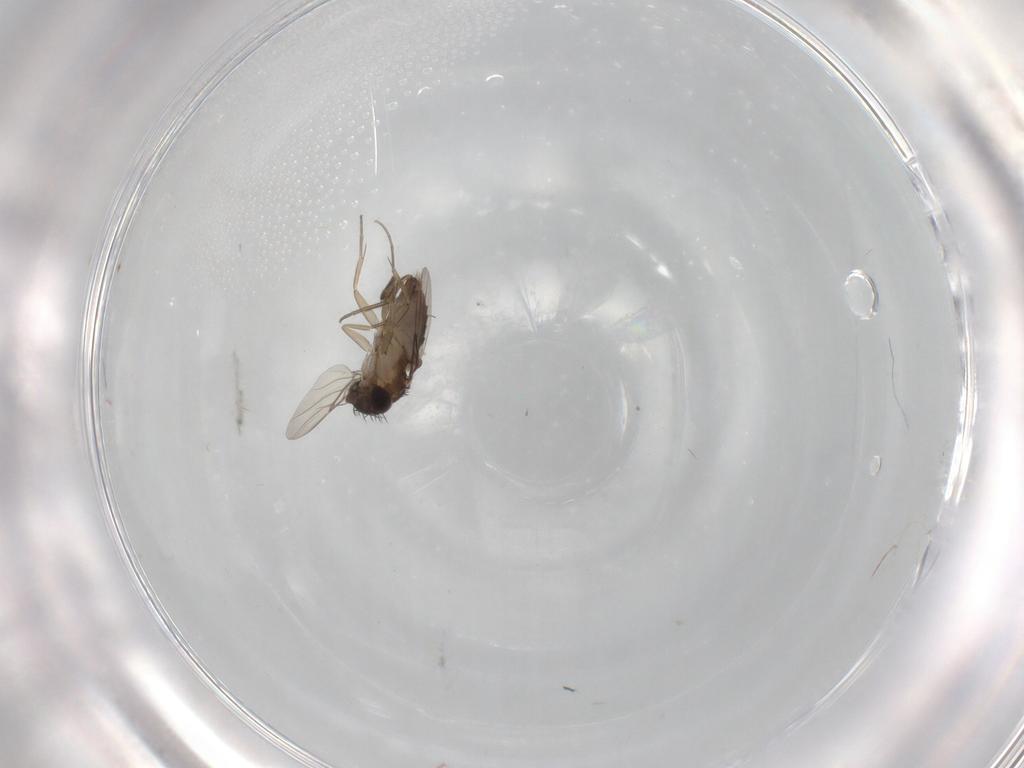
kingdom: Animalia
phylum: Arthropoda
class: Insecta
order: Diptera
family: Phoridae
